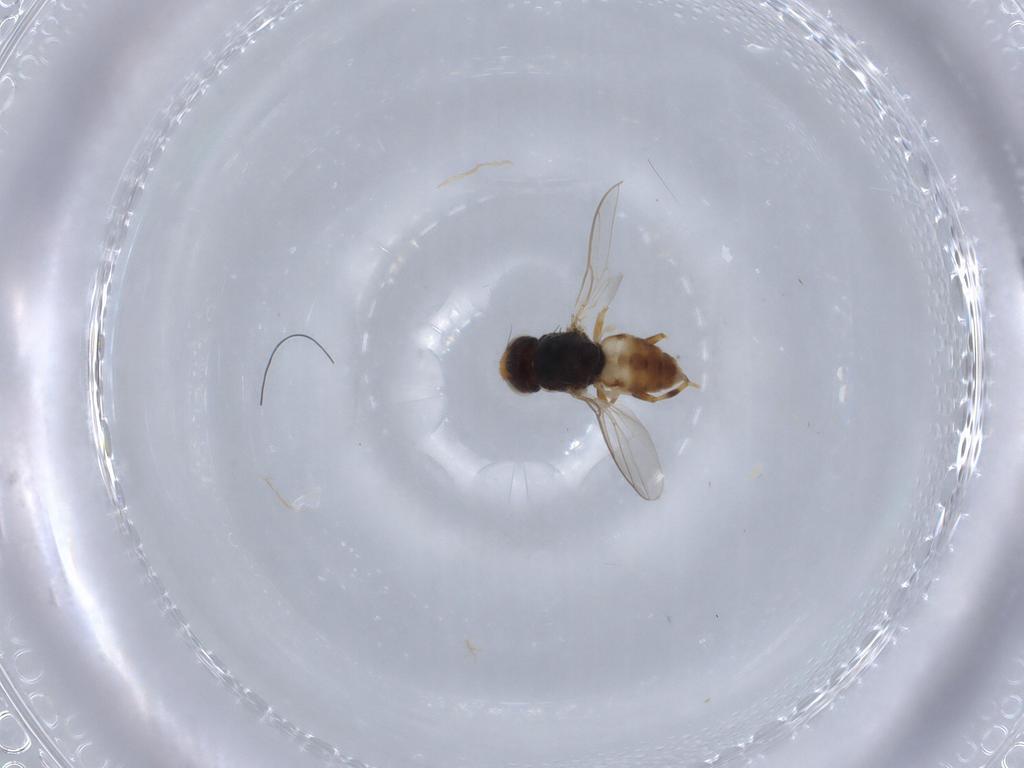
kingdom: Animalia
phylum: Arthropoda
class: Insecta
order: Diptera
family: Chloropidae
